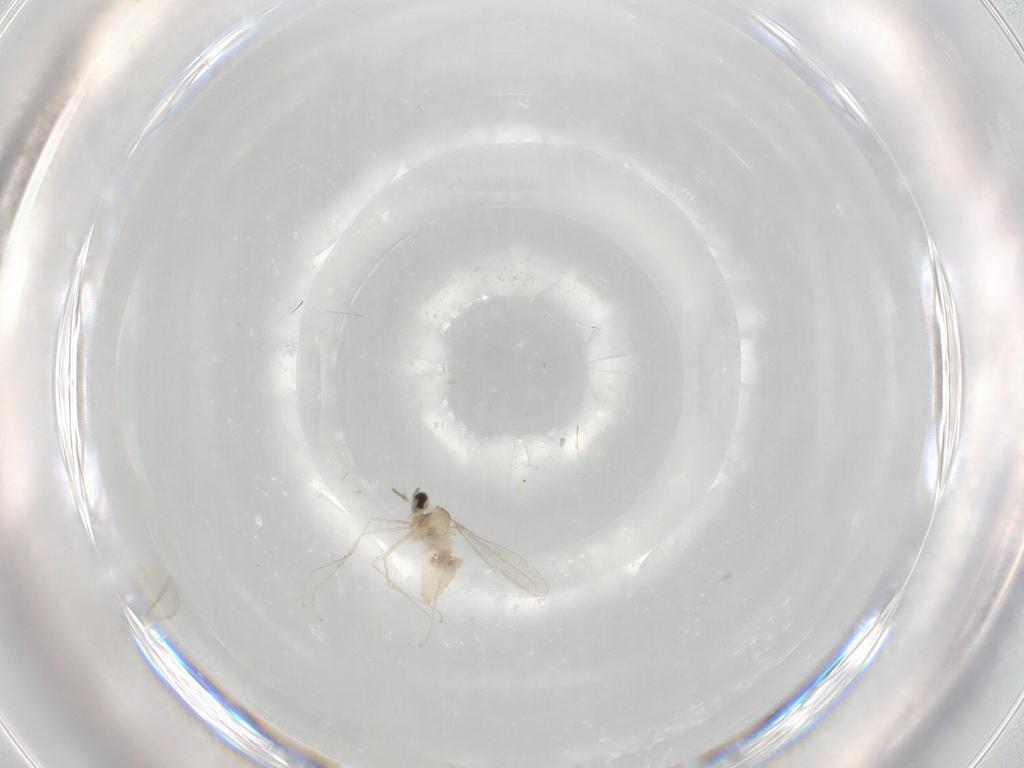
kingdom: Animalia
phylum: Arthropoda
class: Insecta
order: Diptera
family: Cecidomyiidae
